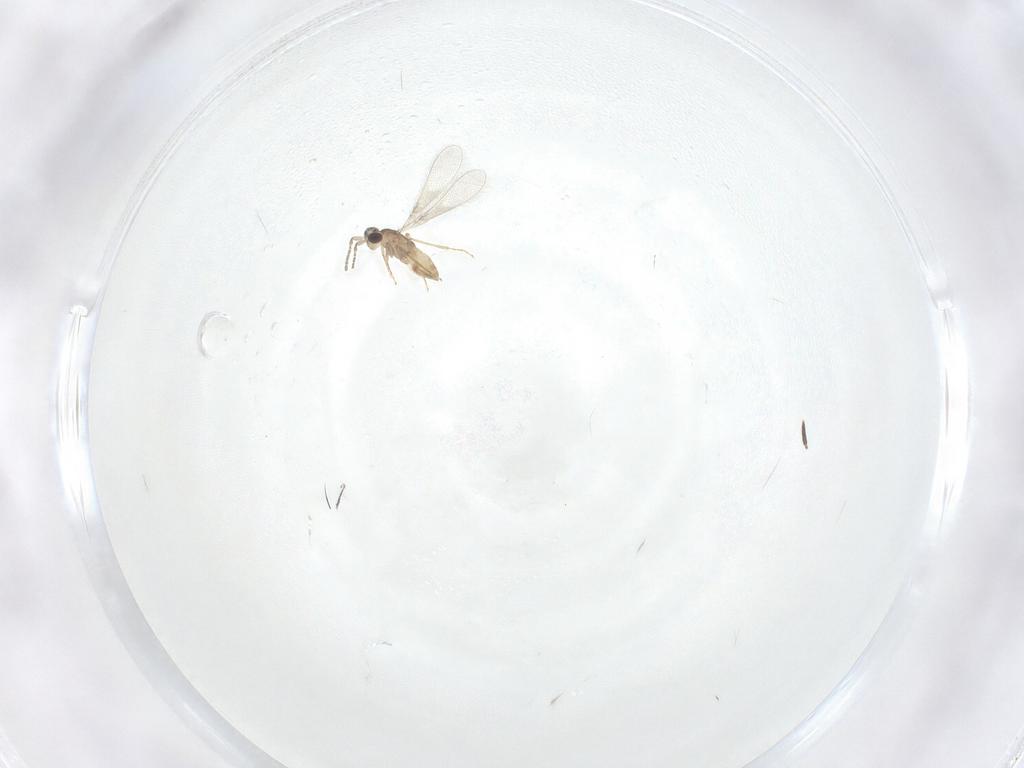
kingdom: Animalia
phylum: Arthropoda
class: Insecta
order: Hymenoptera
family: Mymaridae
